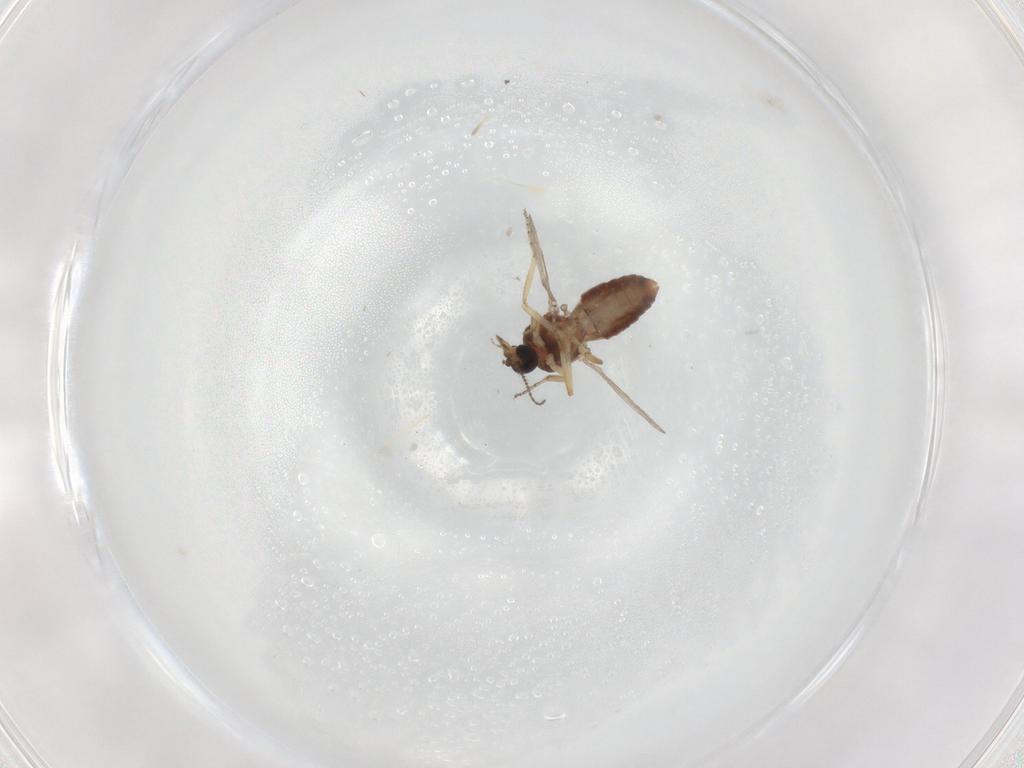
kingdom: Animalia
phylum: Arthropoda
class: Insecta
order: Diptera
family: Ceratopogonidae
